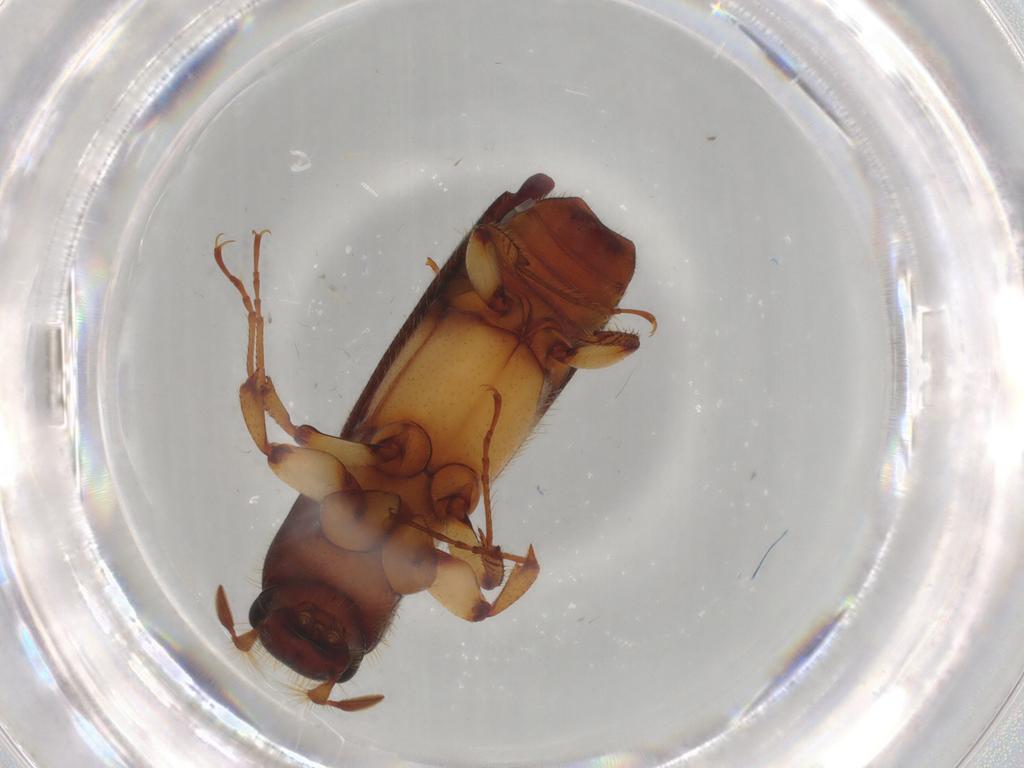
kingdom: Animalia
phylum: Arthropoda
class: Insecta
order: Coleoptera
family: Curculionidae
